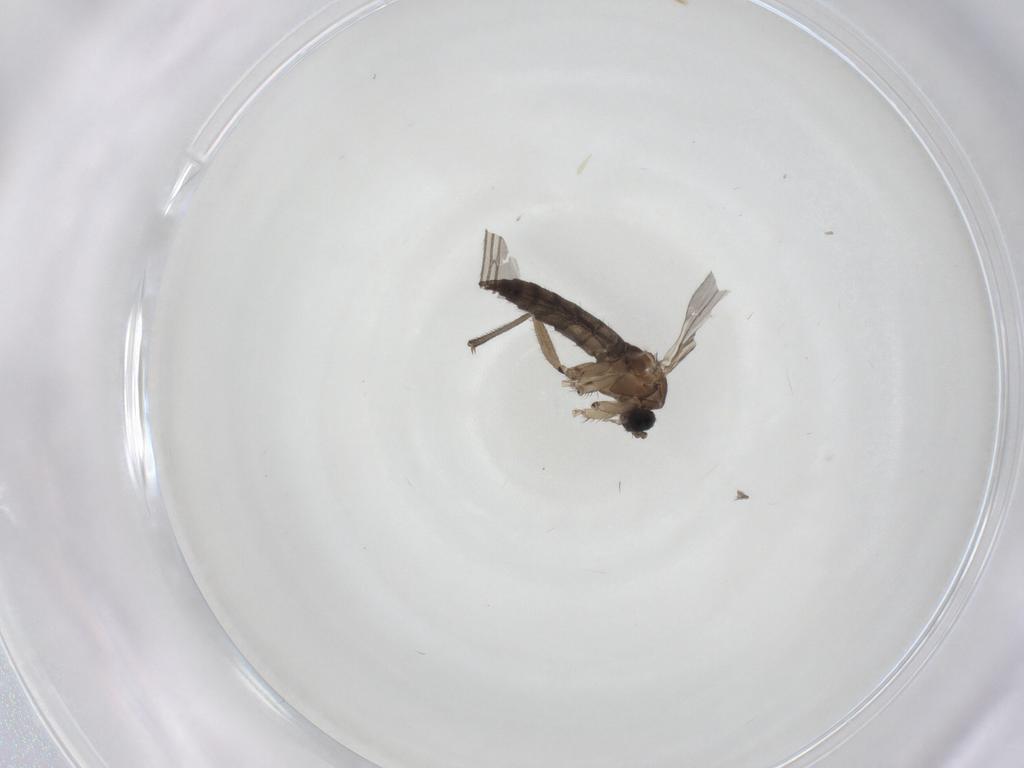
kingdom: Animalia
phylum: Arthropoda
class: Insecta
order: Diptera
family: Sciaridae
